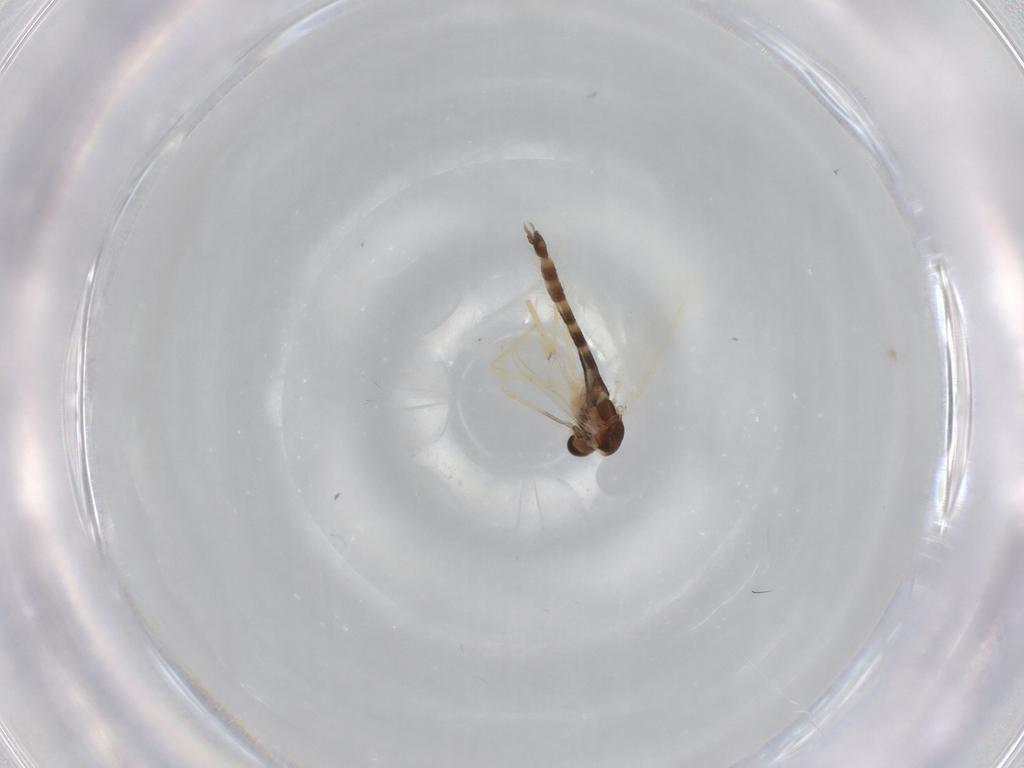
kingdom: Animalia
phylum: Arthropoda
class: Insecta
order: Diptera
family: Chironomidae
